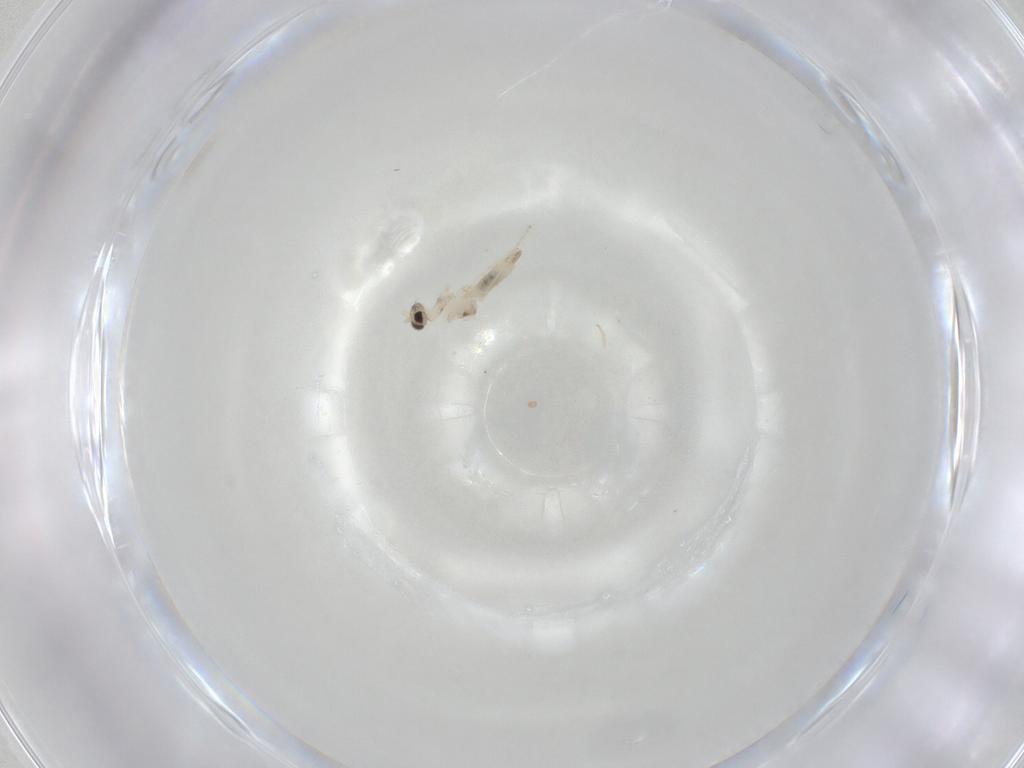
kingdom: Animalia
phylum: Arthropoda
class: Insecta
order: Diptera
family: Cecidomyiidae
